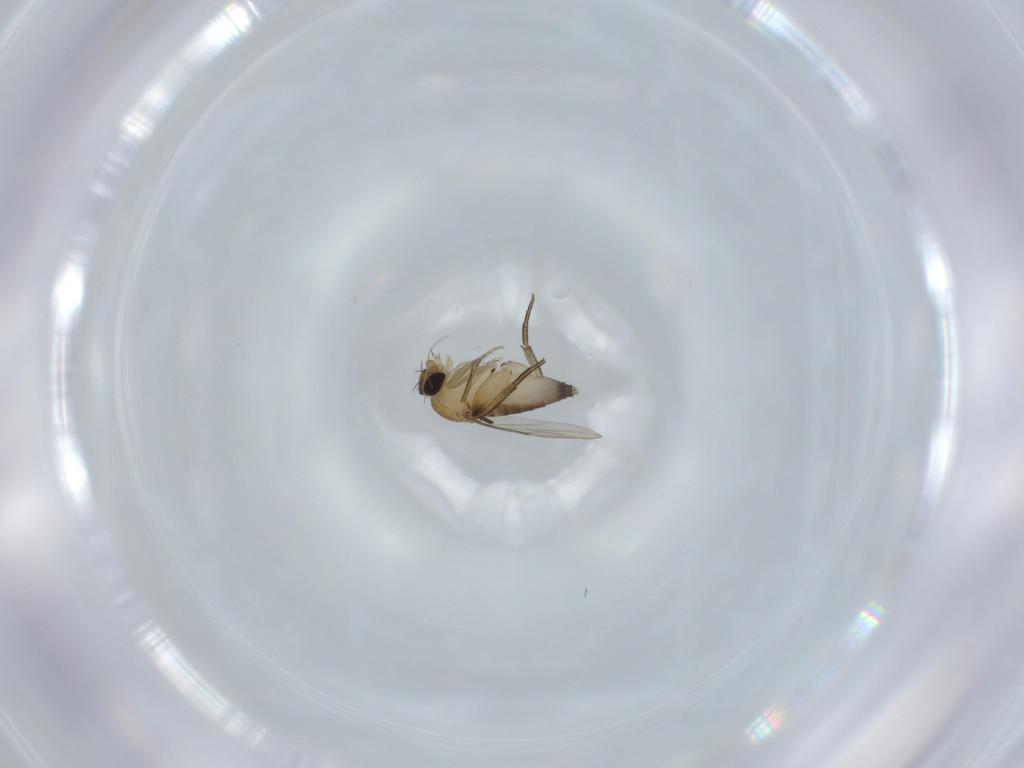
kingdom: Animalia
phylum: Arthropoda
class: Insecta
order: Diptera
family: Phoridae
